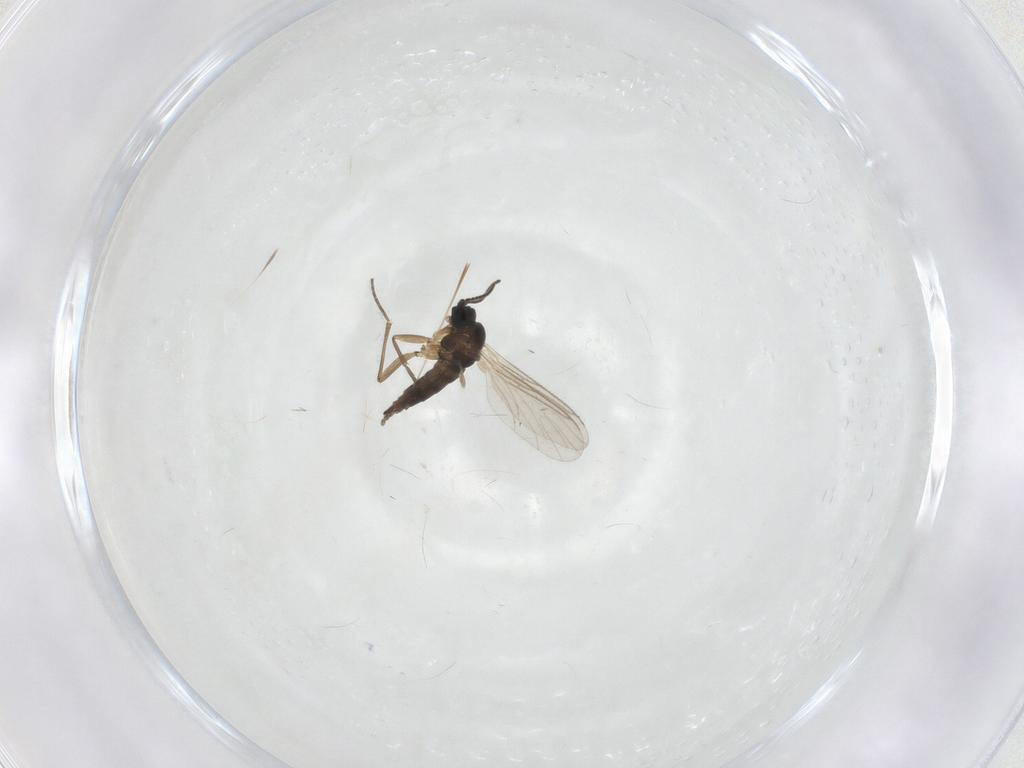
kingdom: Animalia
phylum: Arthropoda
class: Insecta
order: Diptera
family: Sciaridae
